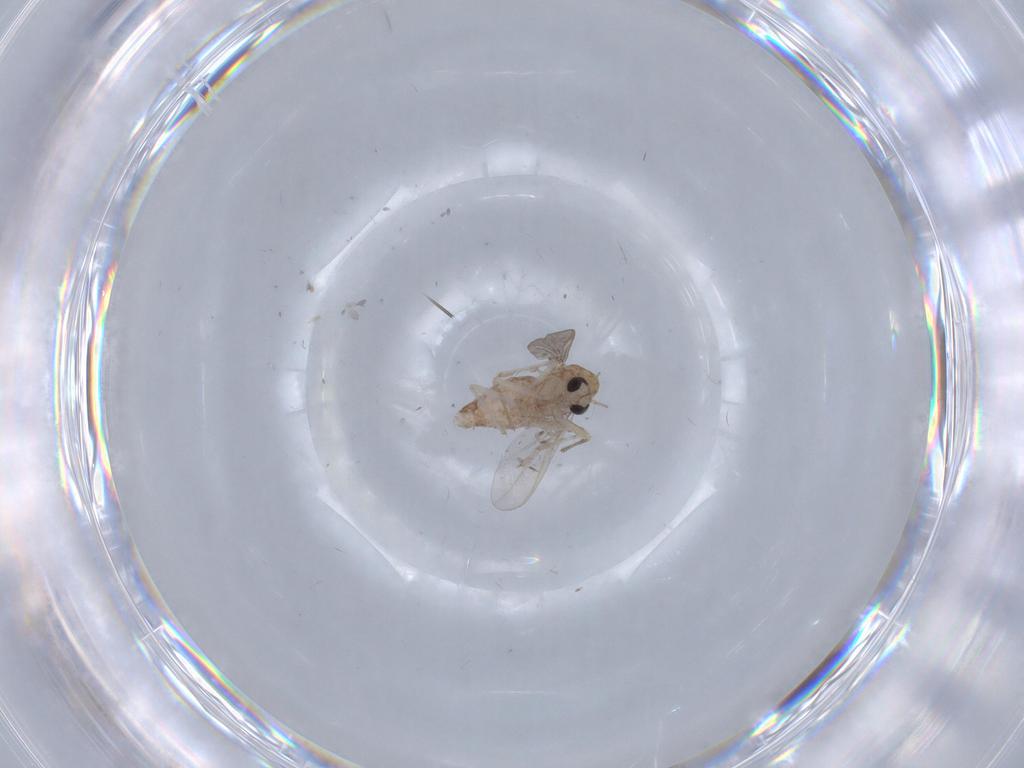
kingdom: Animalia
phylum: Arthropoda
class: Insecta
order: Diptera
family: Chironomidae
